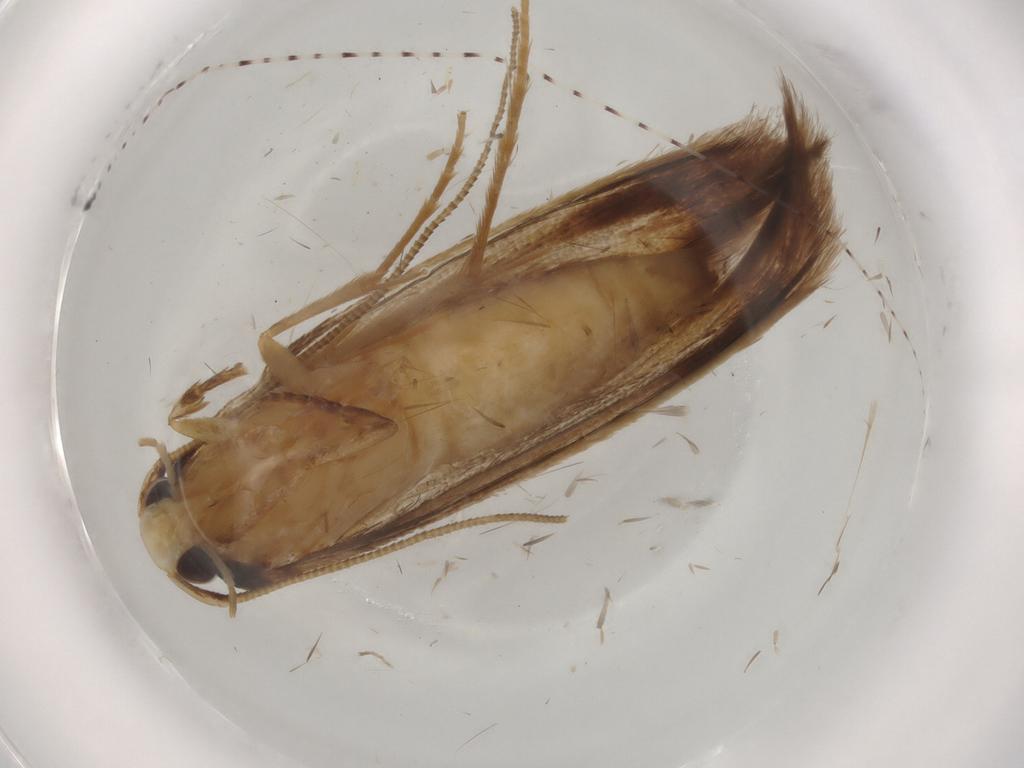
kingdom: Animalia
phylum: Arthropoda
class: Insecta
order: Lepidoptera
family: Tineidae
